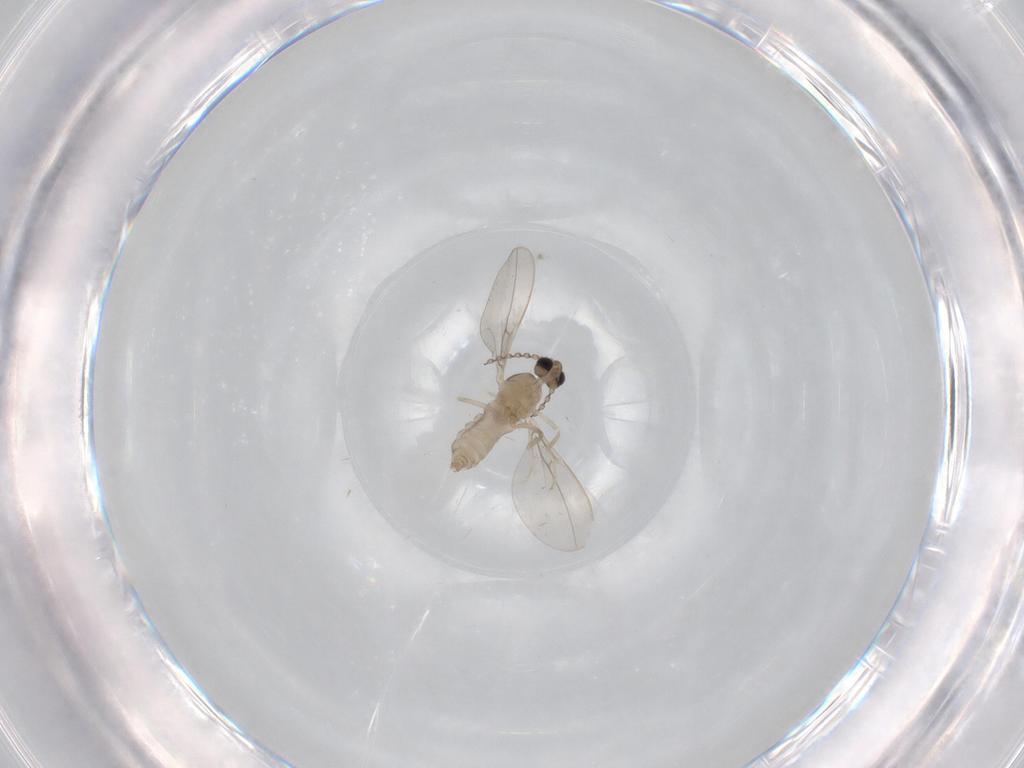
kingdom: Animalia
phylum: Arthropoda
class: Insecta
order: Diptera
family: Cecidomyiidae
